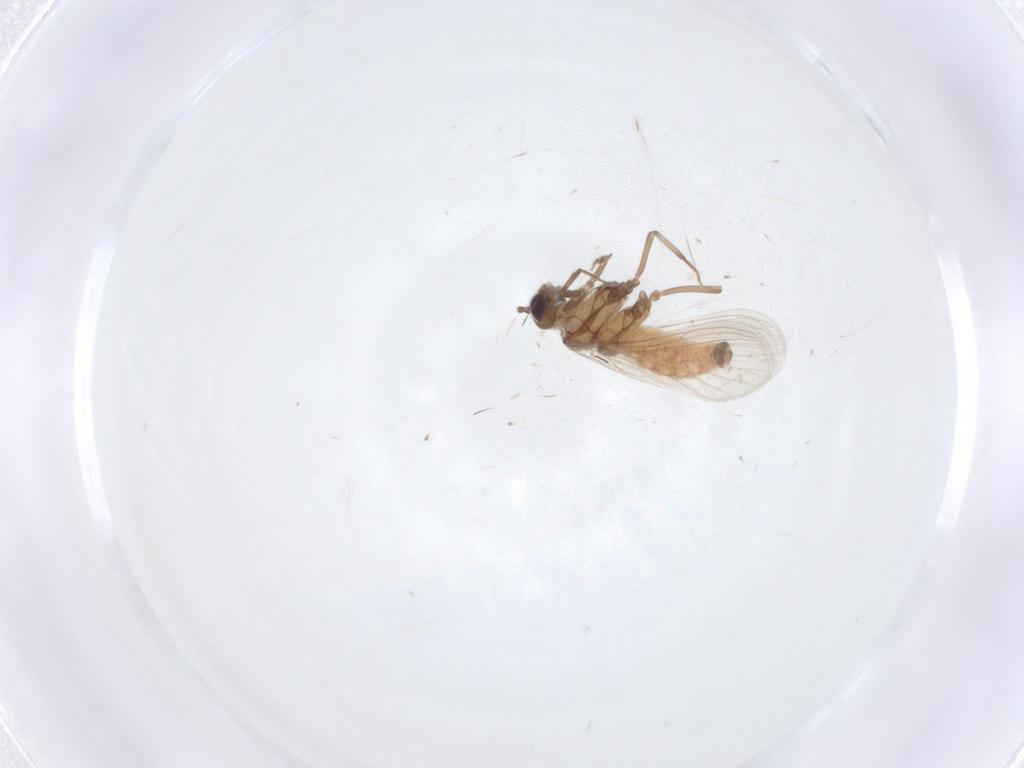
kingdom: Animalia
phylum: Arthropoda
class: Insecta
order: Neuroptera
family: Coniopterygidae
